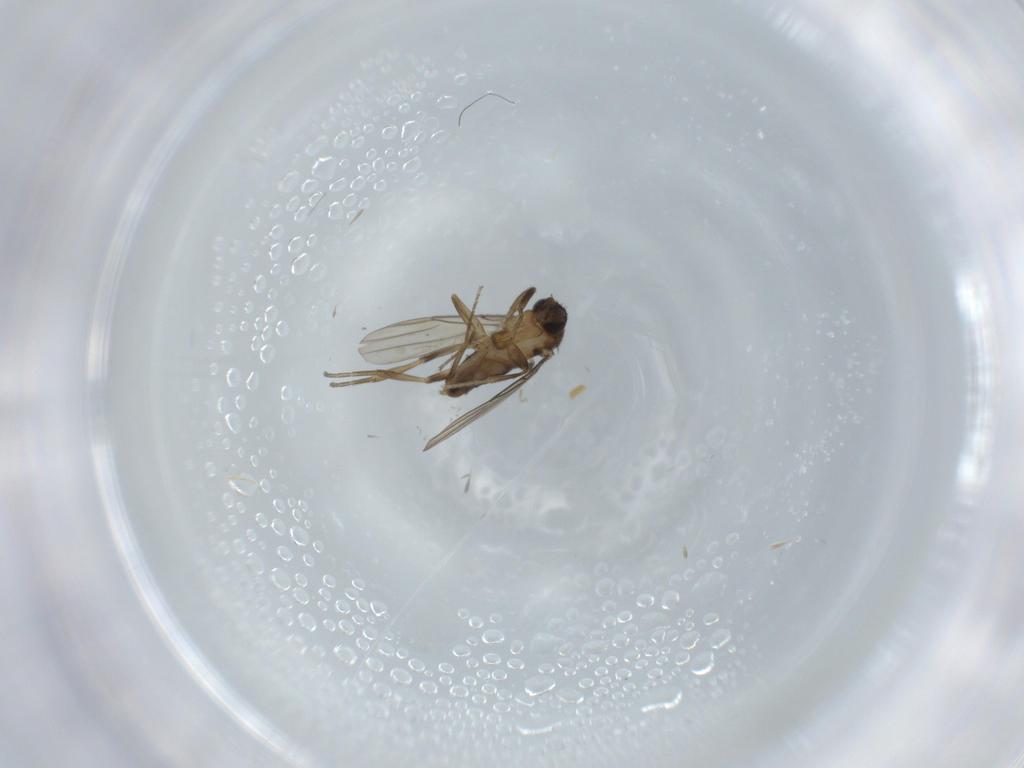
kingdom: Animalia
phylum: Arthropoda
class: Insecta
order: Diptera
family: Phoridae
